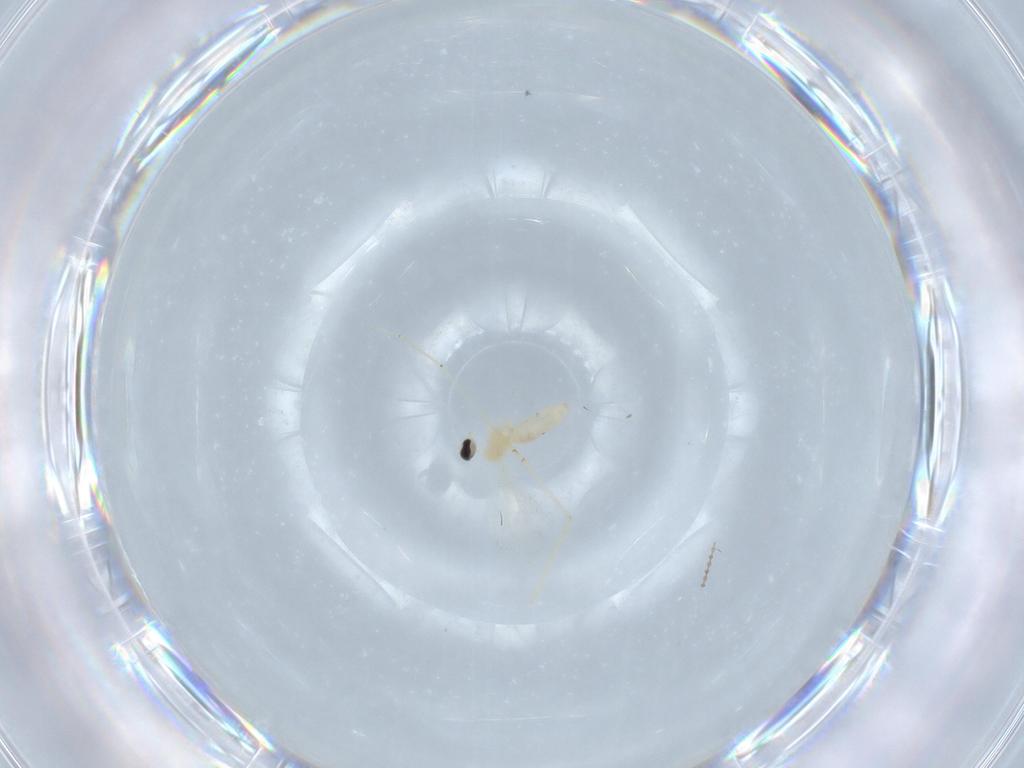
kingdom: Animalia
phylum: Arthropoda
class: Insecta
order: Diptera
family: Cecidomyiidae
